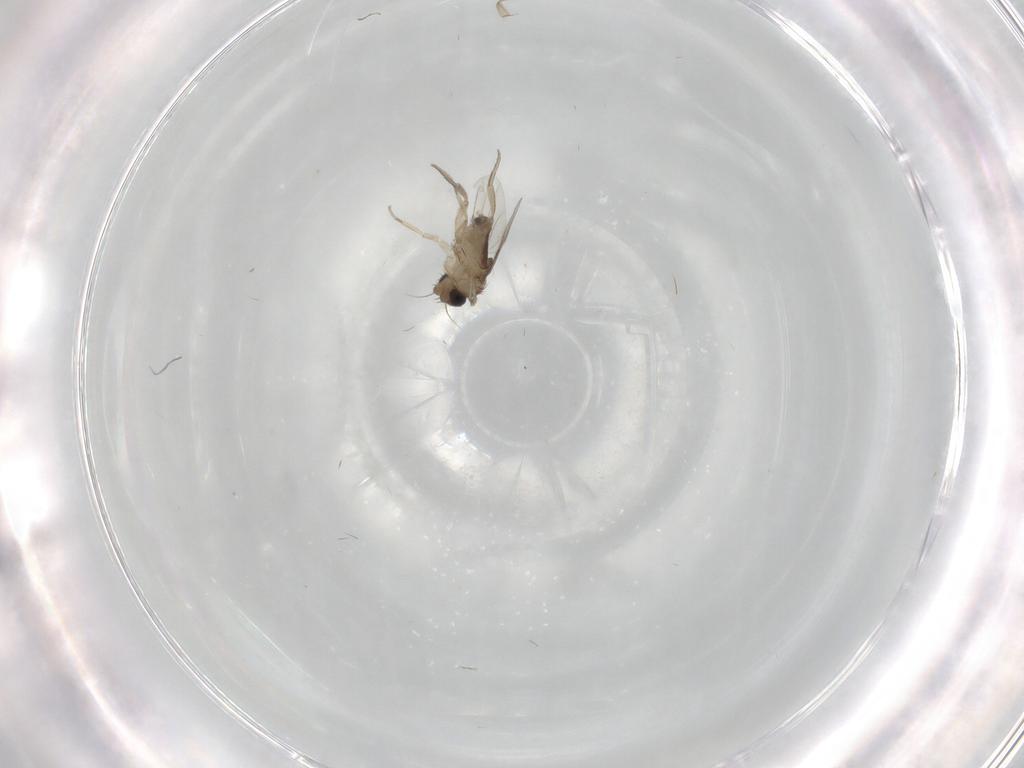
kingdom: Animalia
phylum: Arthropoda
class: Insecta
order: Diptera
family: Phoridae
